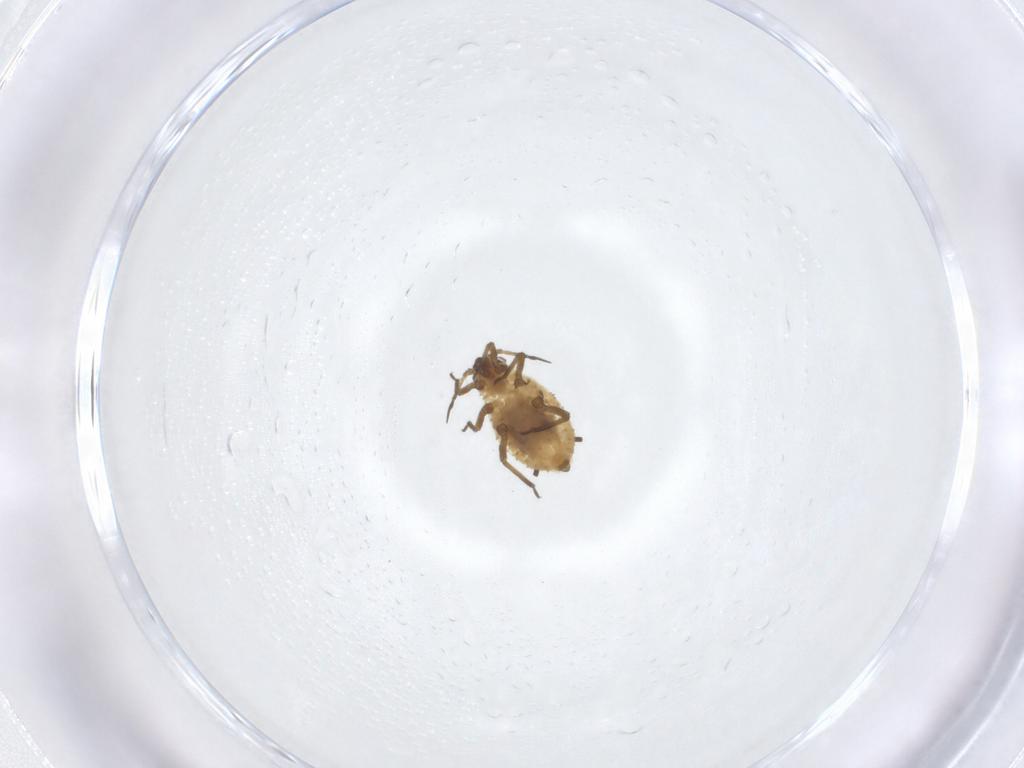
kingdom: Animalia
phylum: Arthropoda
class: Insecta
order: Hemiptera
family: Aphididae
